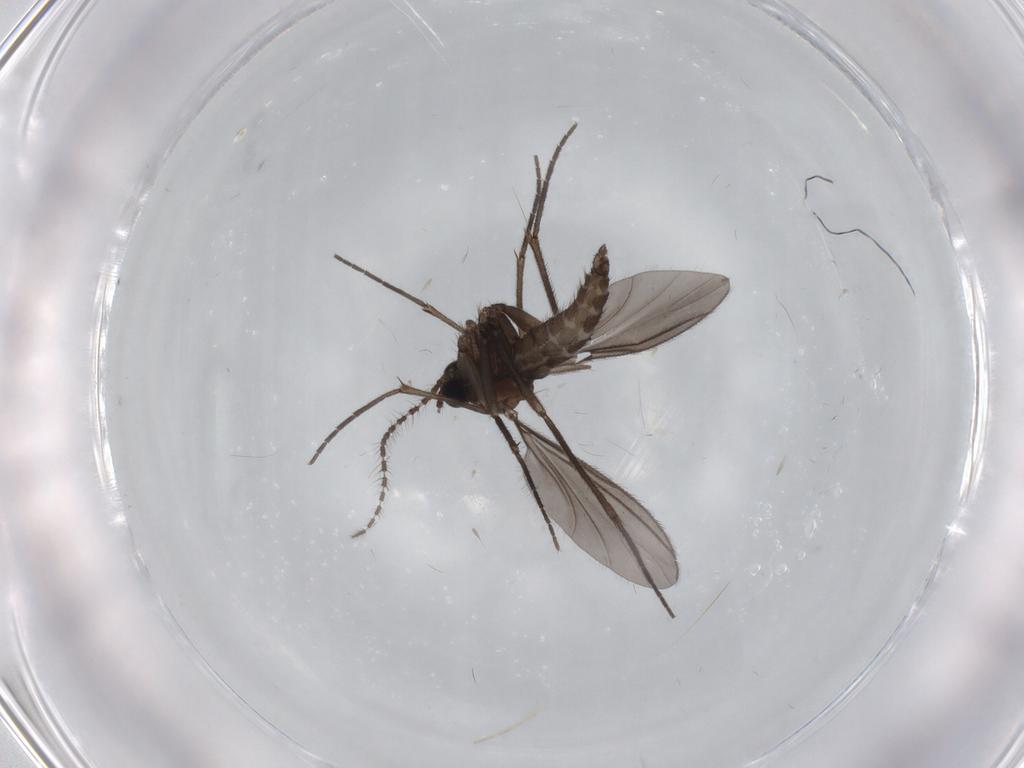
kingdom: Animalia
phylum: Arthropoda
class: Insecta
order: Diptera
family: Sciaridae
